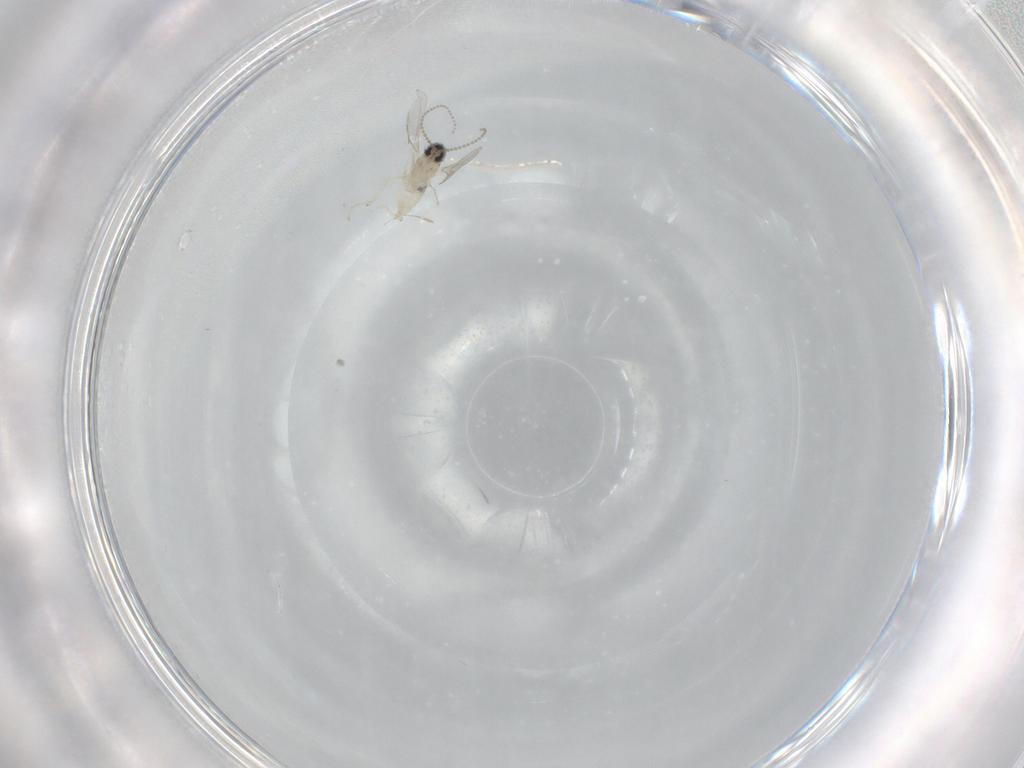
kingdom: Animalia
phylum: Arthropoda
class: Insecta
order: Diptera
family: Cecidomyiidae
